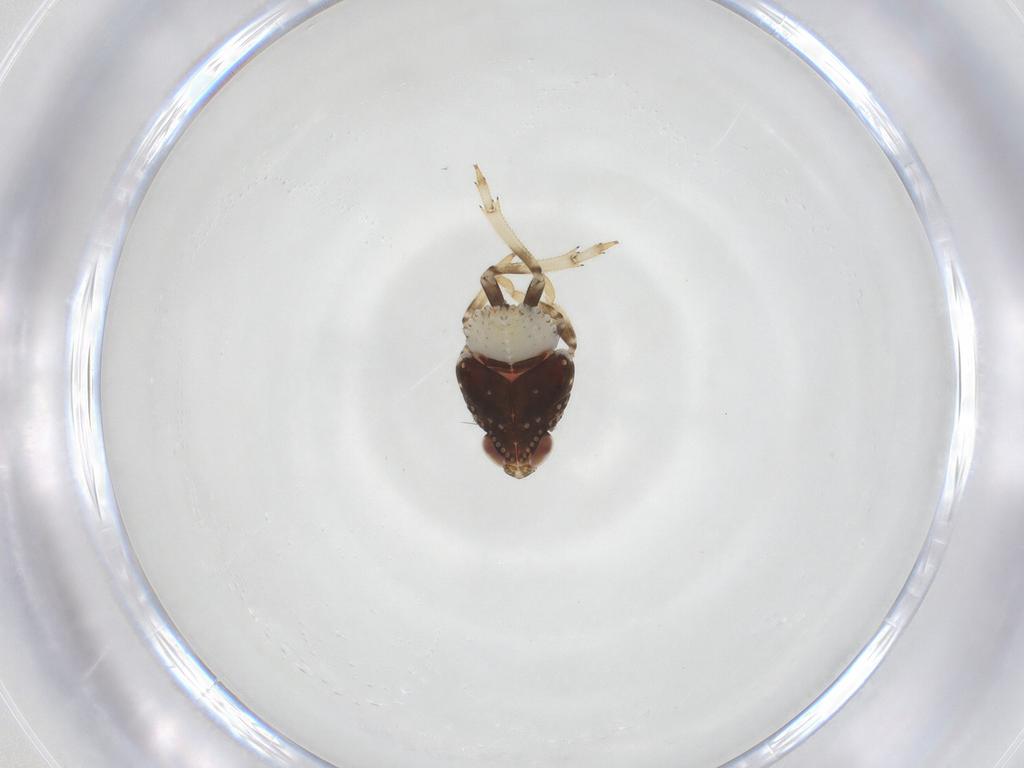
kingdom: Animalia
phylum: Arthropoda
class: Insecta
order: Hemiptera
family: Issidae
